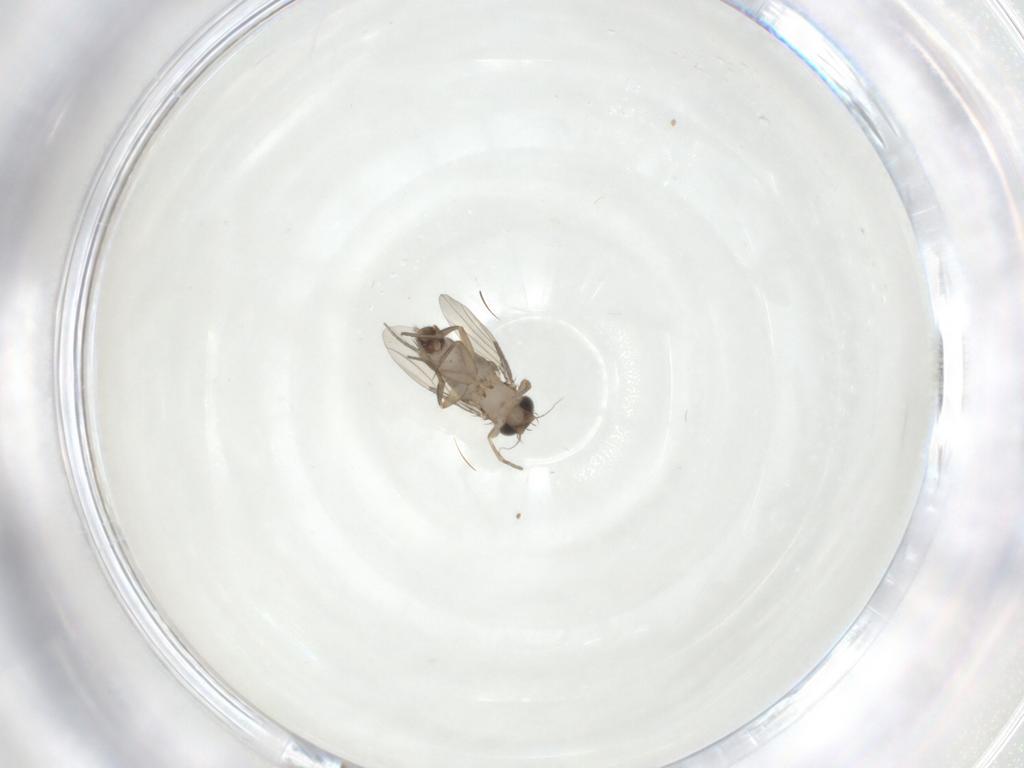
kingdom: Animalia
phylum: Arthropoda
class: Insecta
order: Diptera
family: Phoridae
